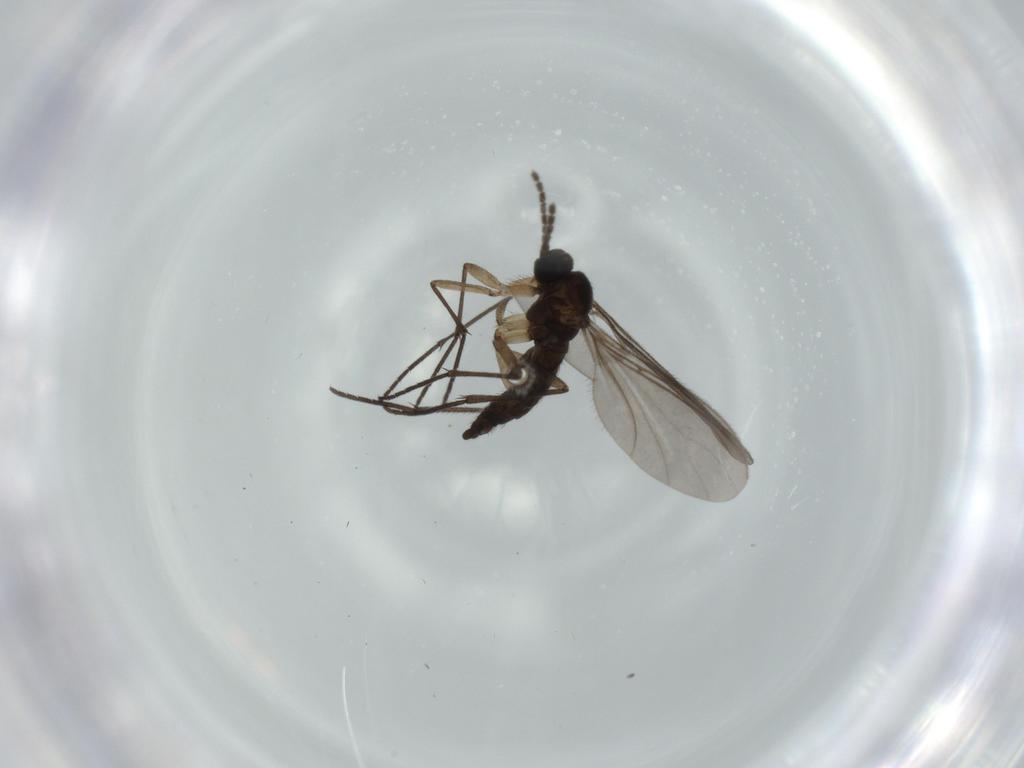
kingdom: Animalia
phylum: Arthropoda
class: Insecta
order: Diptera
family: Sciaridae
